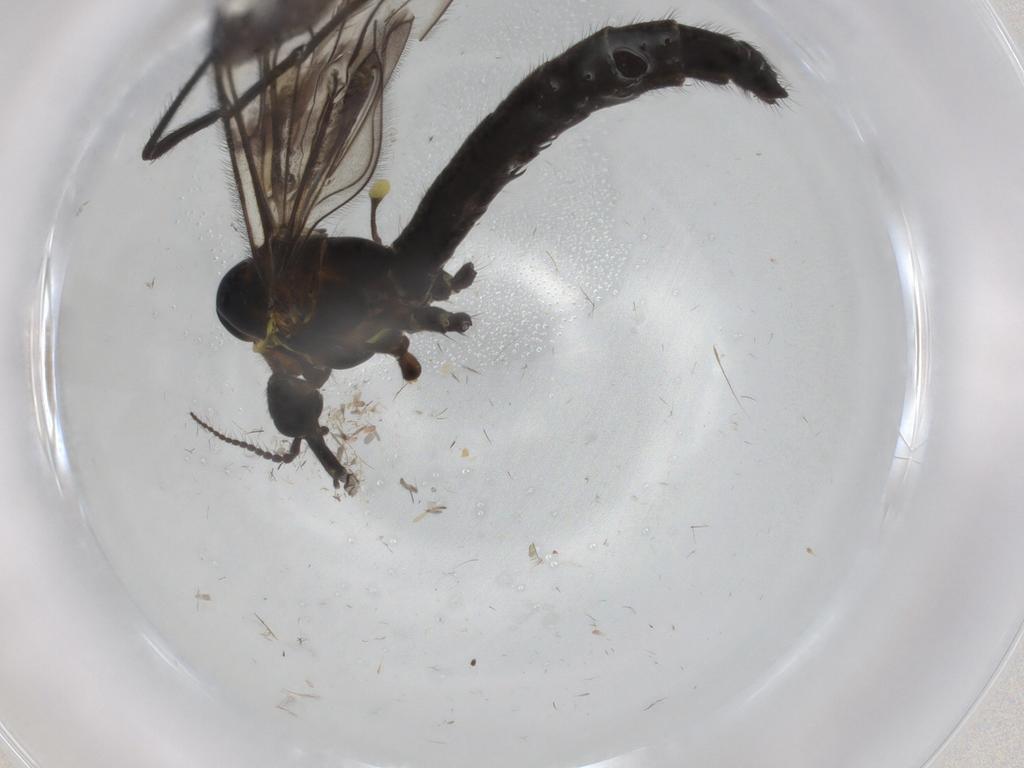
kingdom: Animalia
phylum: Arthropoda
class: Insecta
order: Diptera
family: Limoniidae
